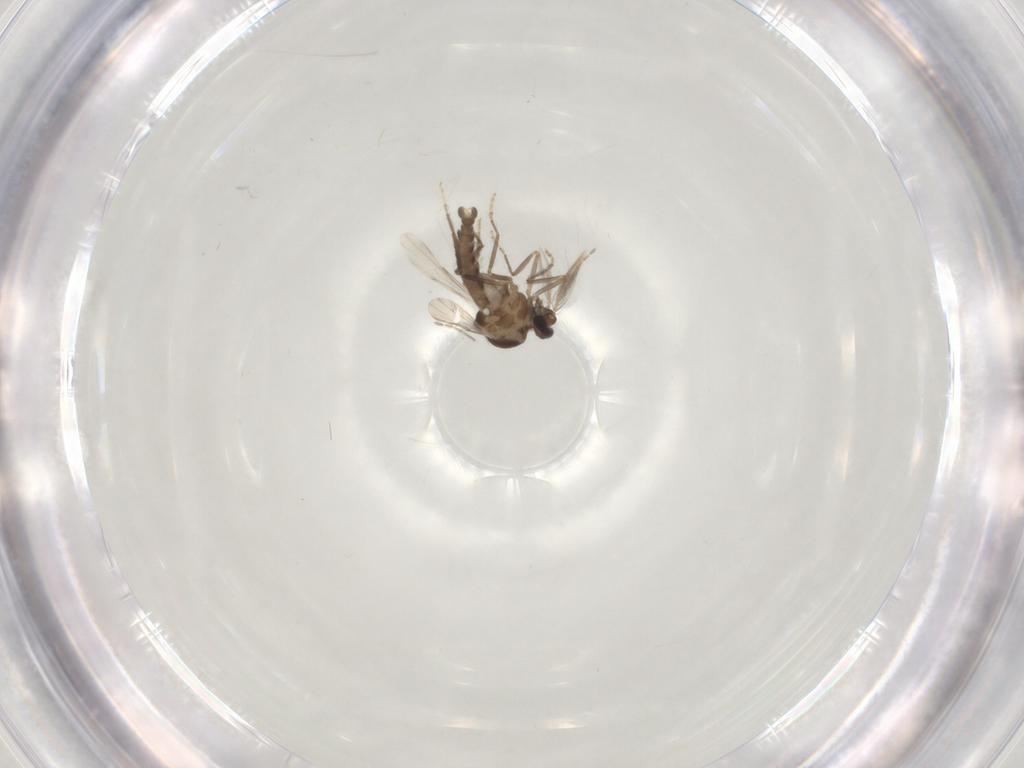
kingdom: Animalia
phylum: Arthropoda
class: Insecta
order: Diptera
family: Ceratopogonidae
